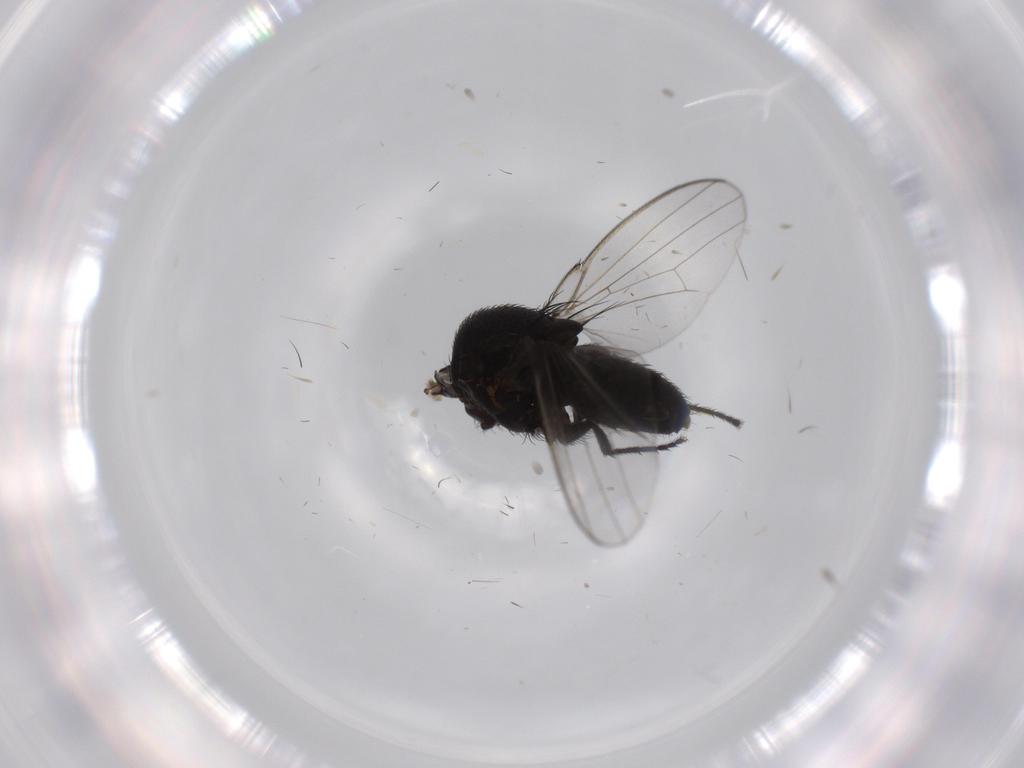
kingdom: Animalia
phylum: Arthropoda
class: Insecta
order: Diptera
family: Milichiidae
